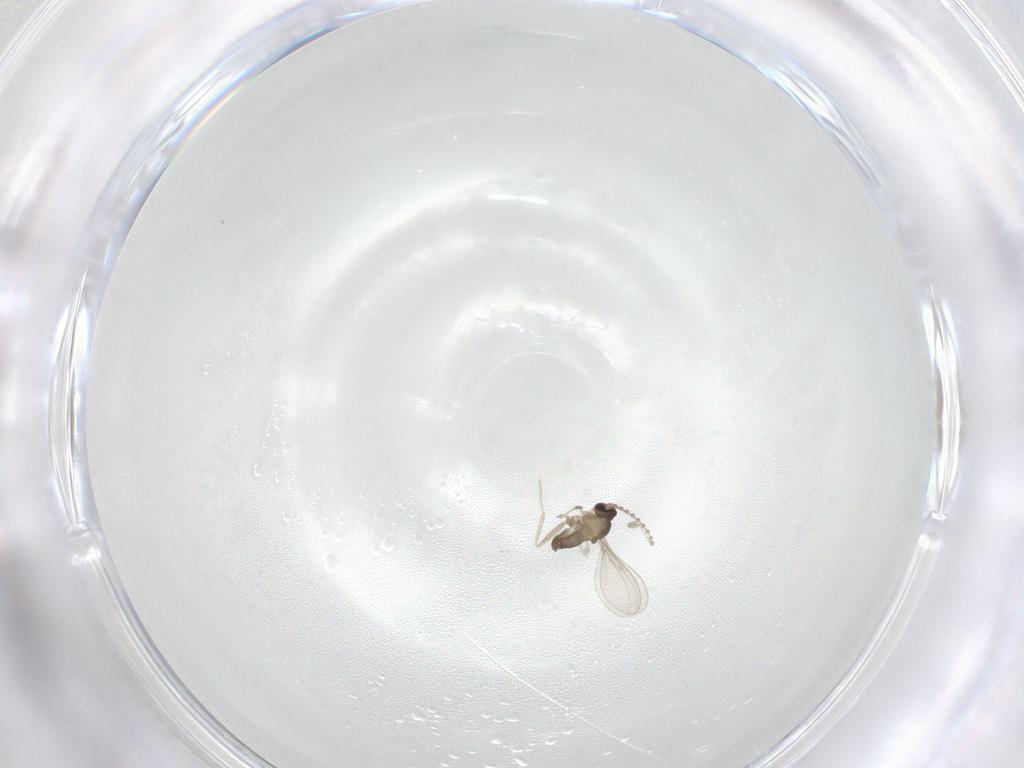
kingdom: Animalia
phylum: Arthropoda
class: Insecta
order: Diptera
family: Cecidomyiidae
